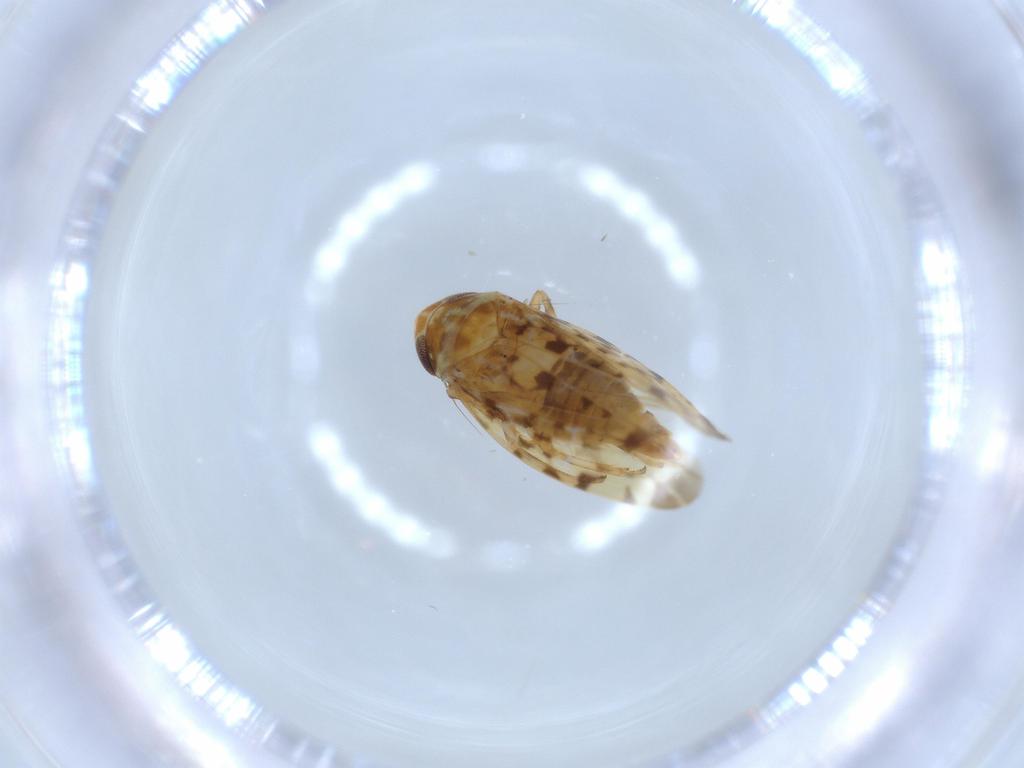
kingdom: Animalia
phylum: Arthropoda
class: Insecta
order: Hemiptera
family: Cicadellidae
